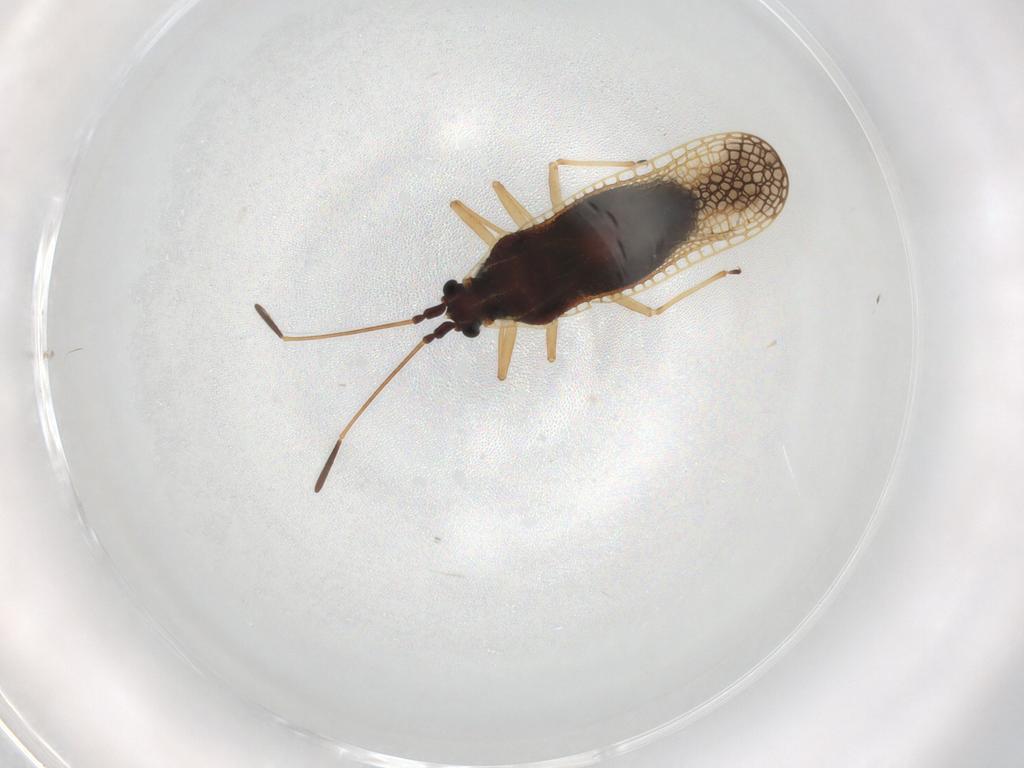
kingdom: Animalia
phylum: Arthropoda
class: Insecta
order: Hemiptera
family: Tingidae
